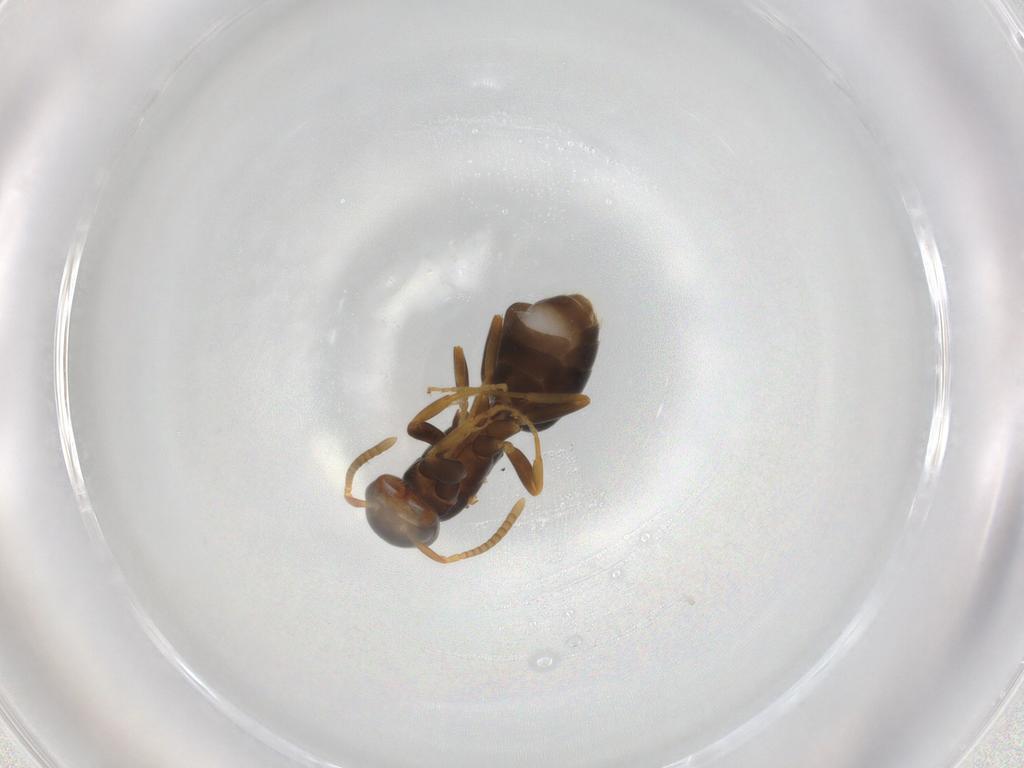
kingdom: Animalia
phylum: Arthropoda
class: Insecta
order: Hymenoptera
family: Formicidae
